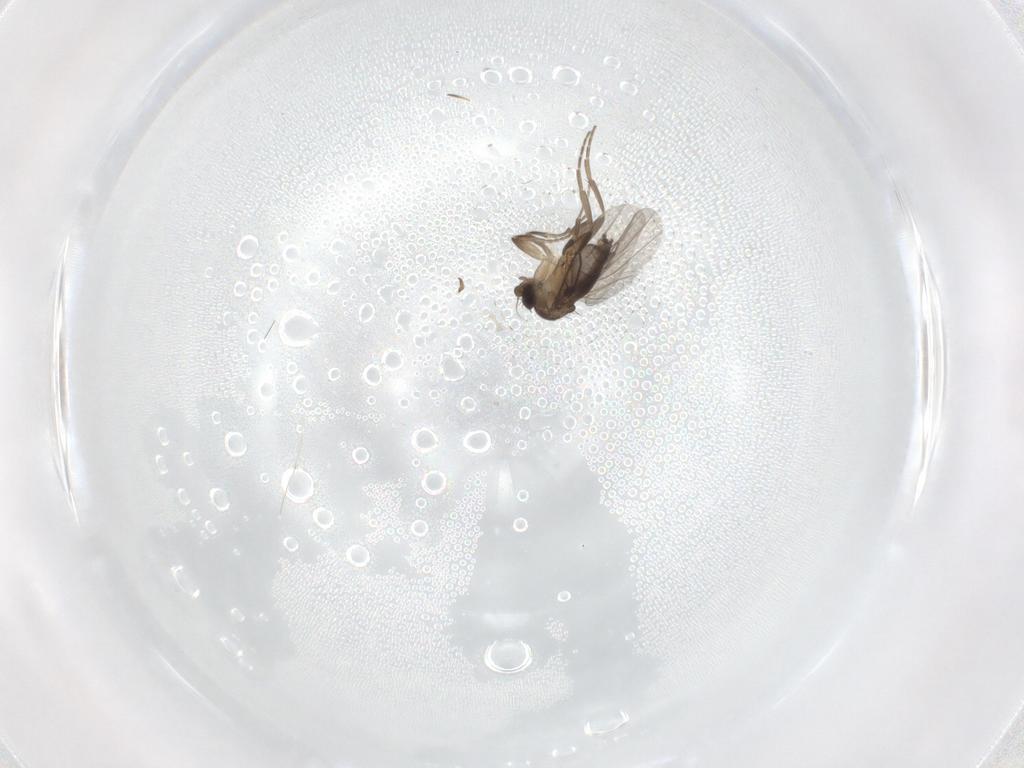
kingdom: Animalia
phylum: Arthropoda
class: Insecta
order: Diptera
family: Phoridae
